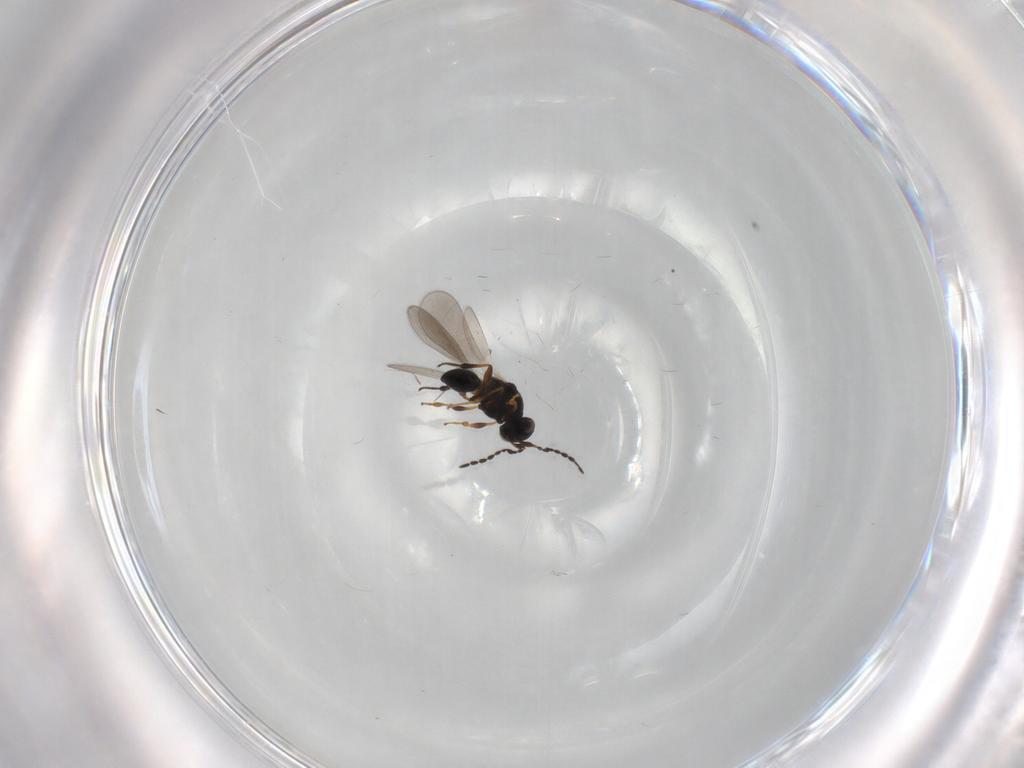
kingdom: Animalia
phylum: Arthropoda
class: Insecta
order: Hymenoptera
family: Platygastridae
